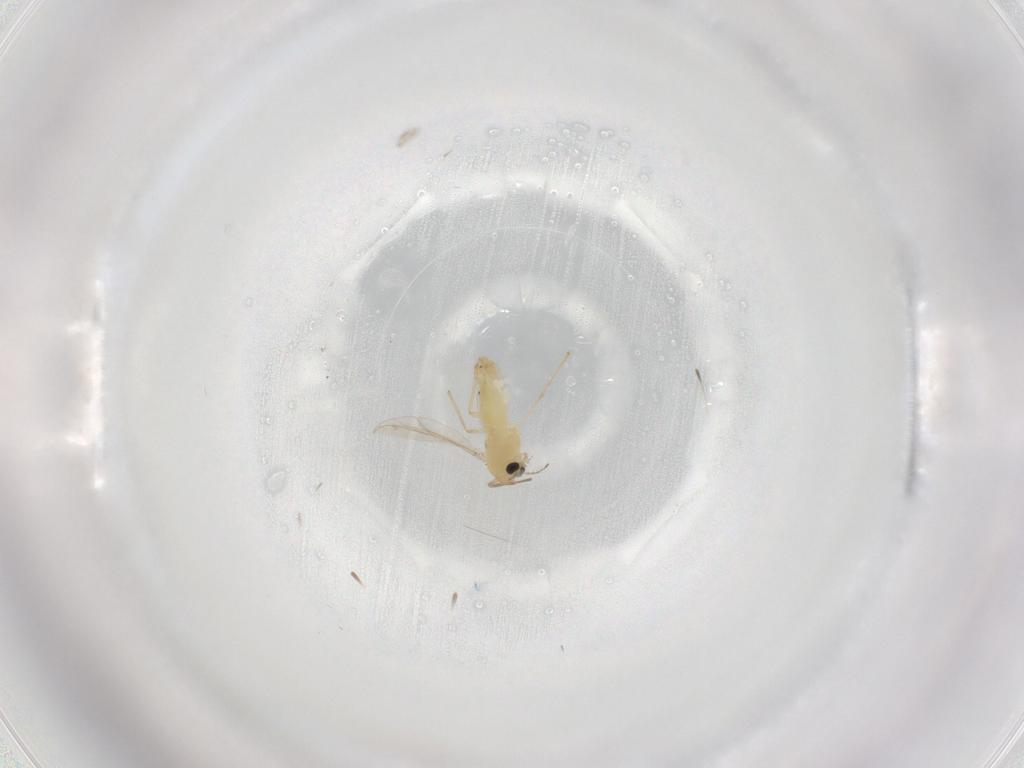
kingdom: Animalia
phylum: Arthropoda
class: Insecta
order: Diptera
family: Chironomidae
